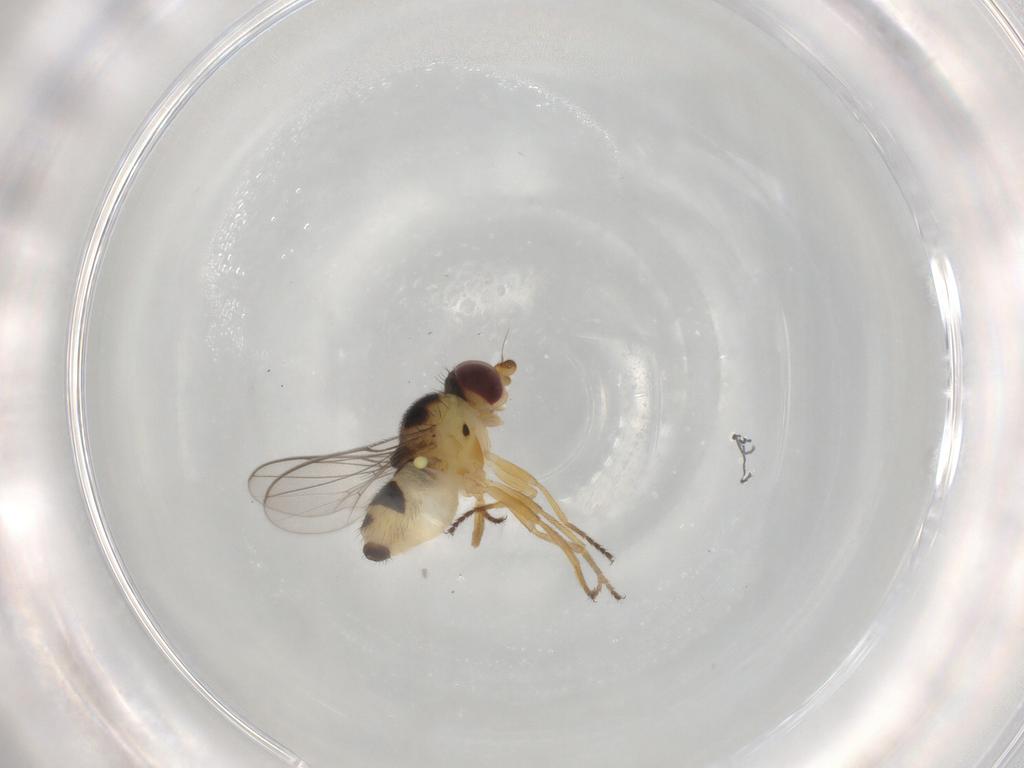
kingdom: Animalia
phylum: Arthropoda
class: Insecta
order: Diptera
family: Chloropidae
